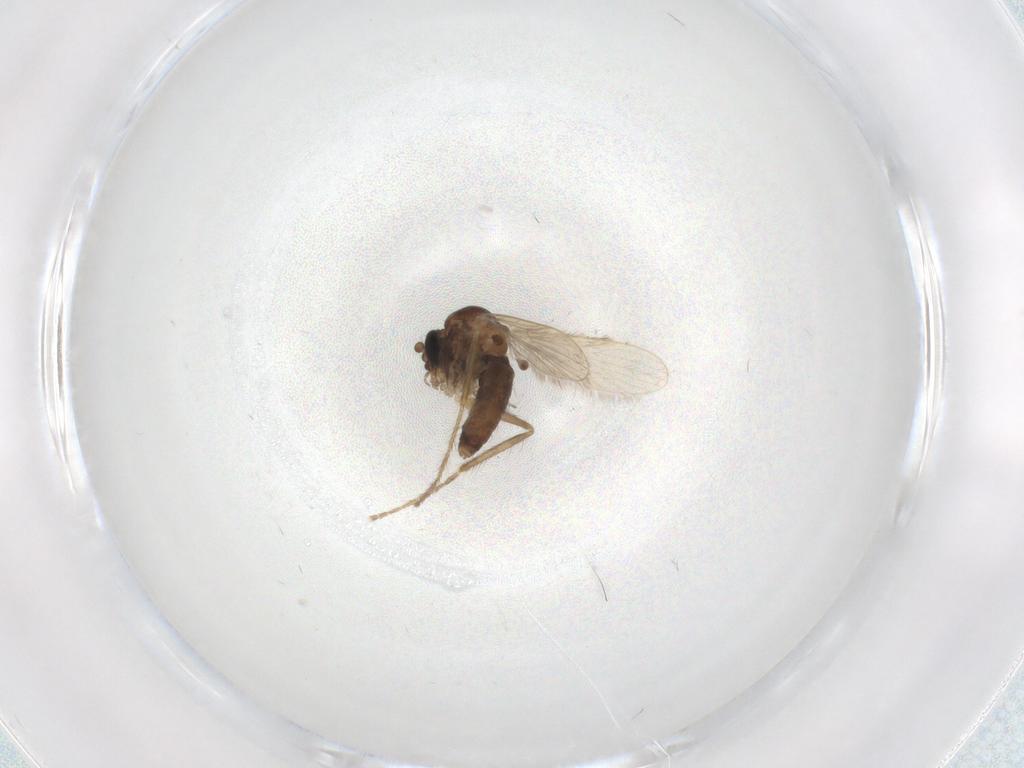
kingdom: Animalia
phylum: Arthropoda
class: Insecta
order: Diptera
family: Corethrellidae
